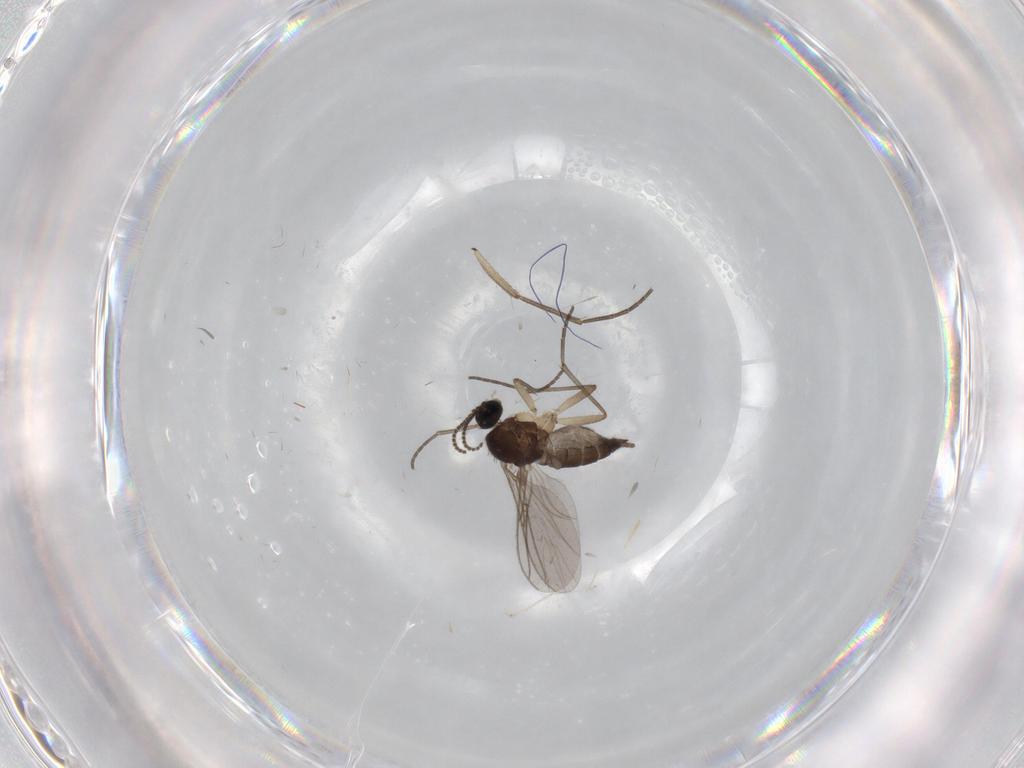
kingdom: Animalia
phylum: Arthropoda
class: Insecta
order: Diptera
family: Sciaridae
